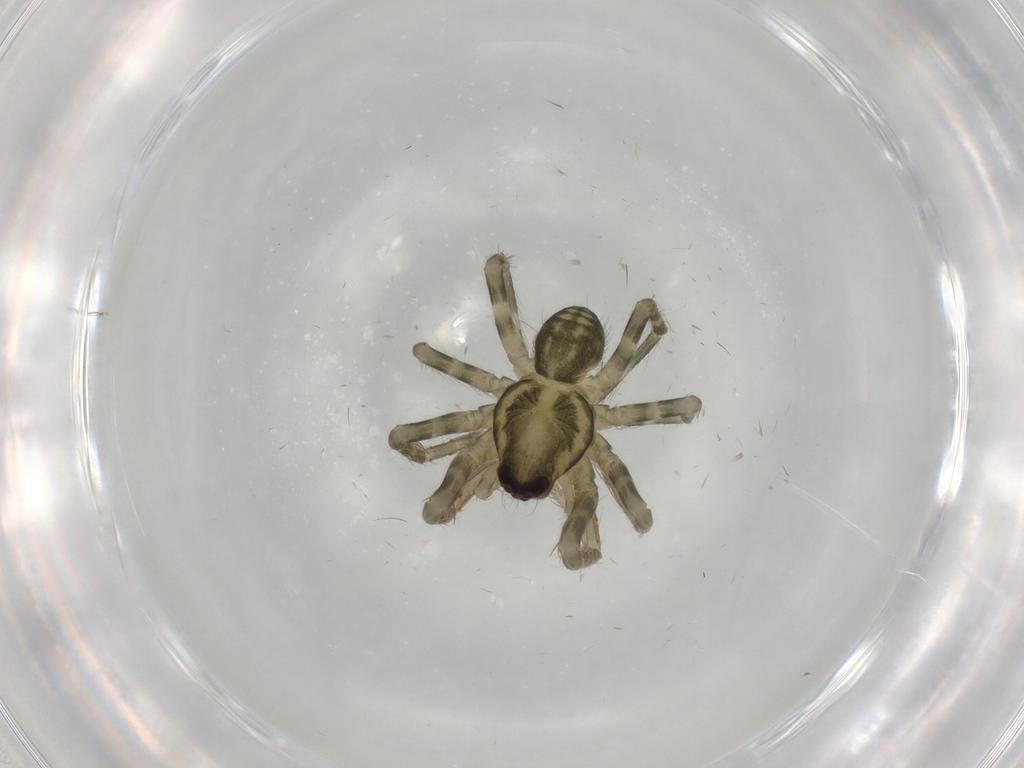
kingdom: Animalia
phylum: Arthropoda
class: Arachnida
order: Araneae
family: Ctenidae
